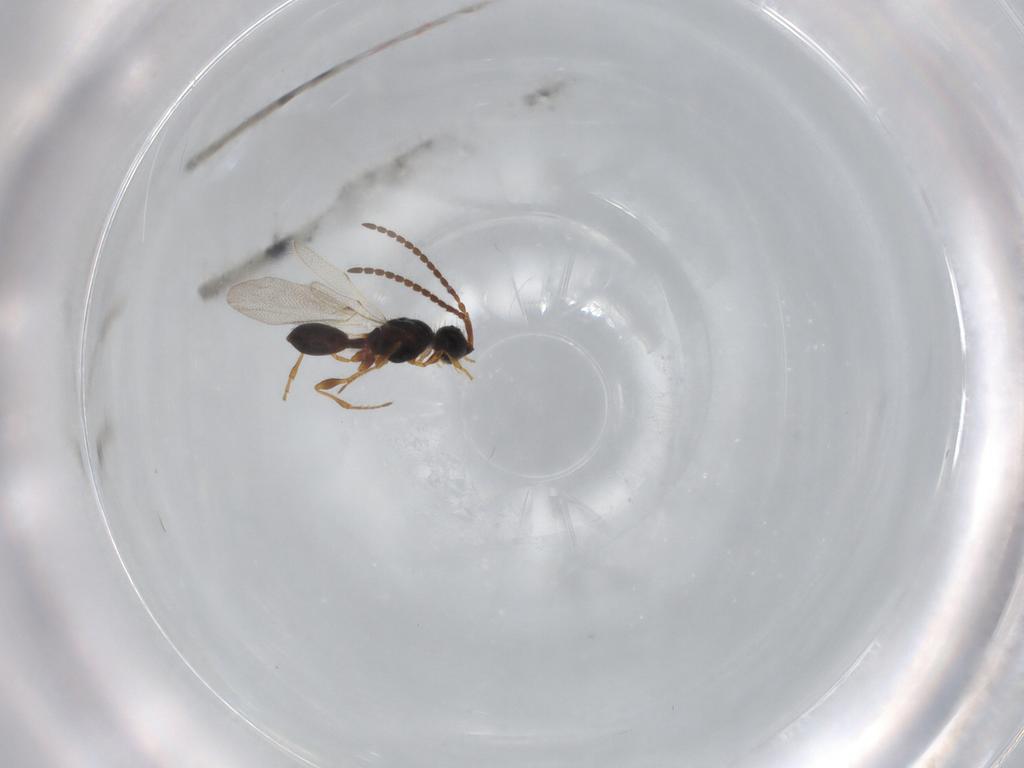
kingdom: Animalia
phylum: Arthropoda
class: Insecta
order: Hymenoptera
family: Diapriidae
